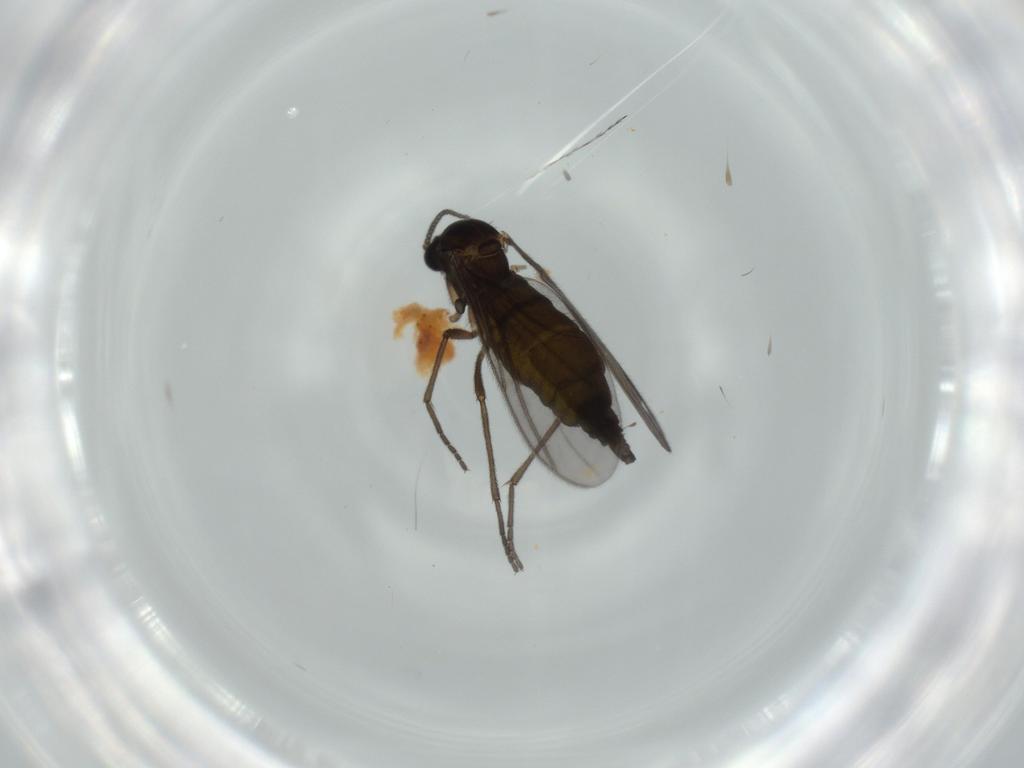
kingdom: Animalia
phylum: Arthropoda
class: Insecta
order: Diptera
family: Sciaridae
